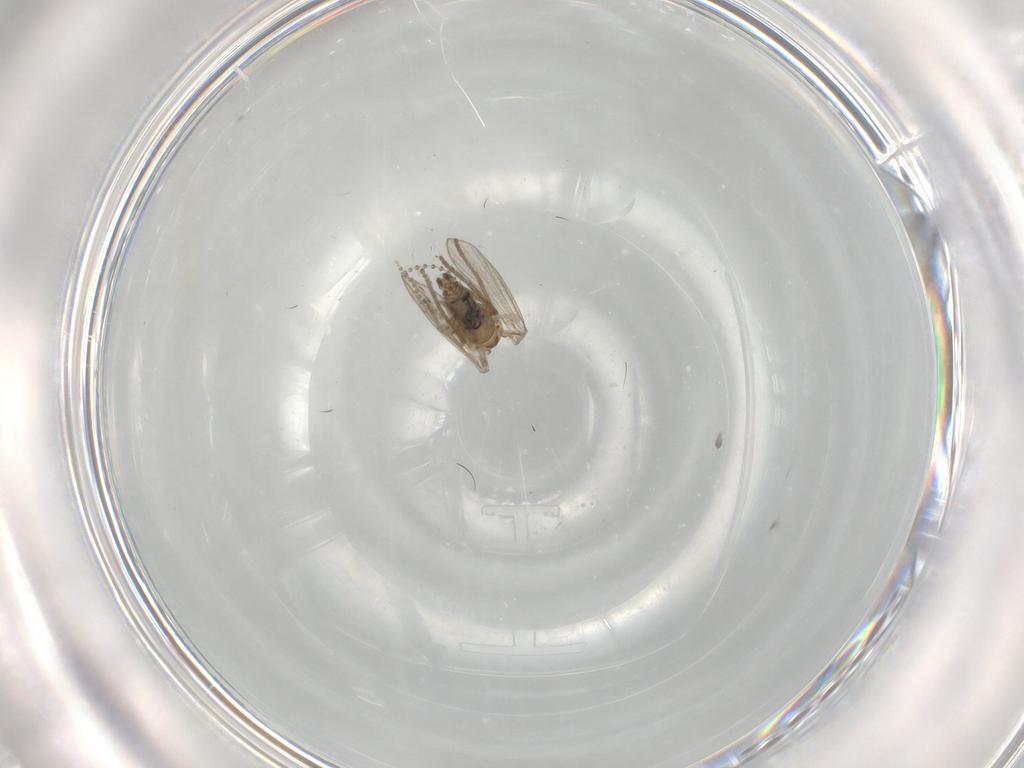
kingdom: Animalia
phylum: Arthropoda
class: Insecta
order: Diptera
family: Psychodidae
